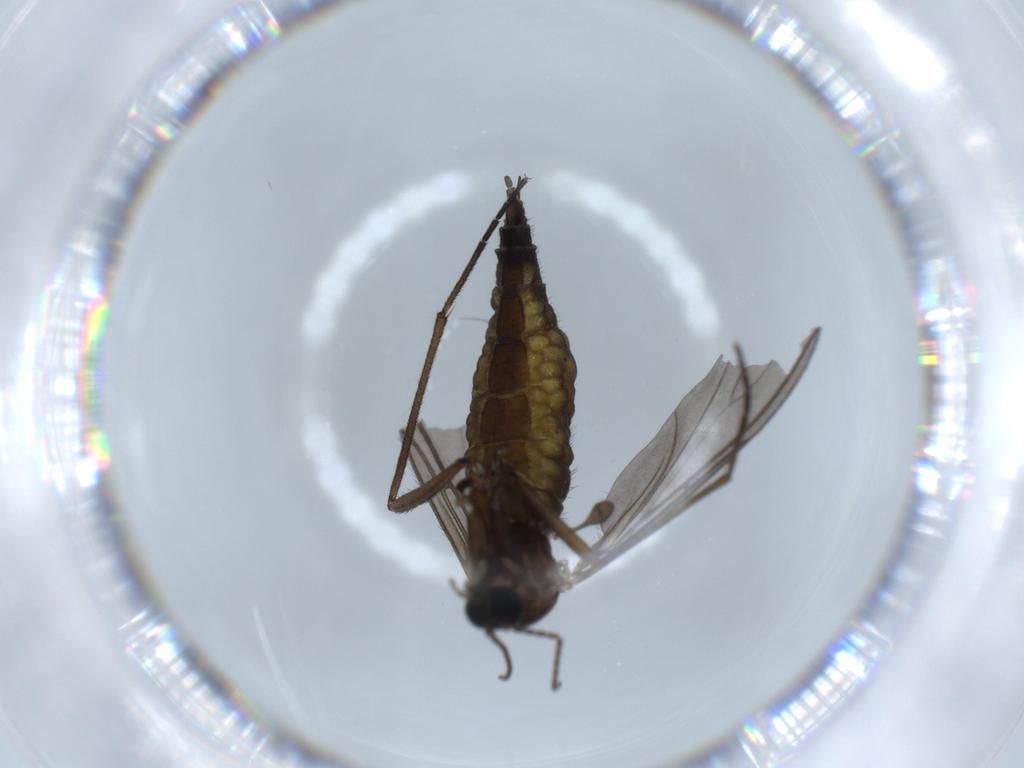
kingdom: Animalia
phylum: Arthropoda
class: Insecta
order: Diptera
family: Sciaridae
